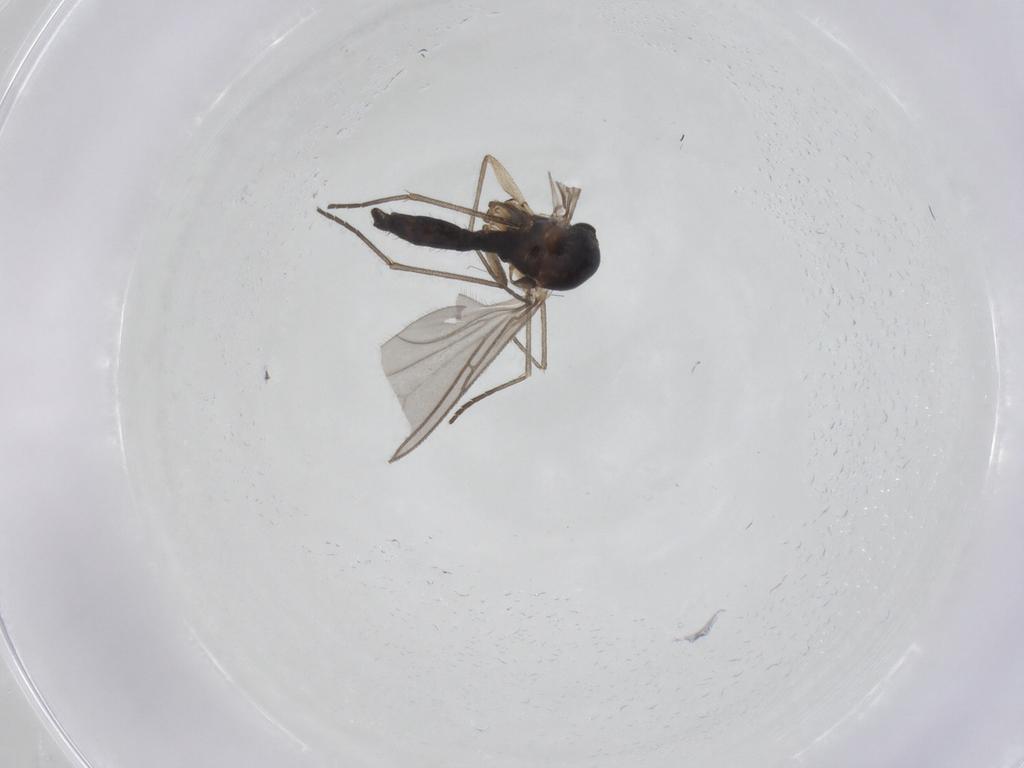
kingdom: Animalia
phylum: Arthropoda
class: Insecta
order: Diptera
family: Sciaridae
